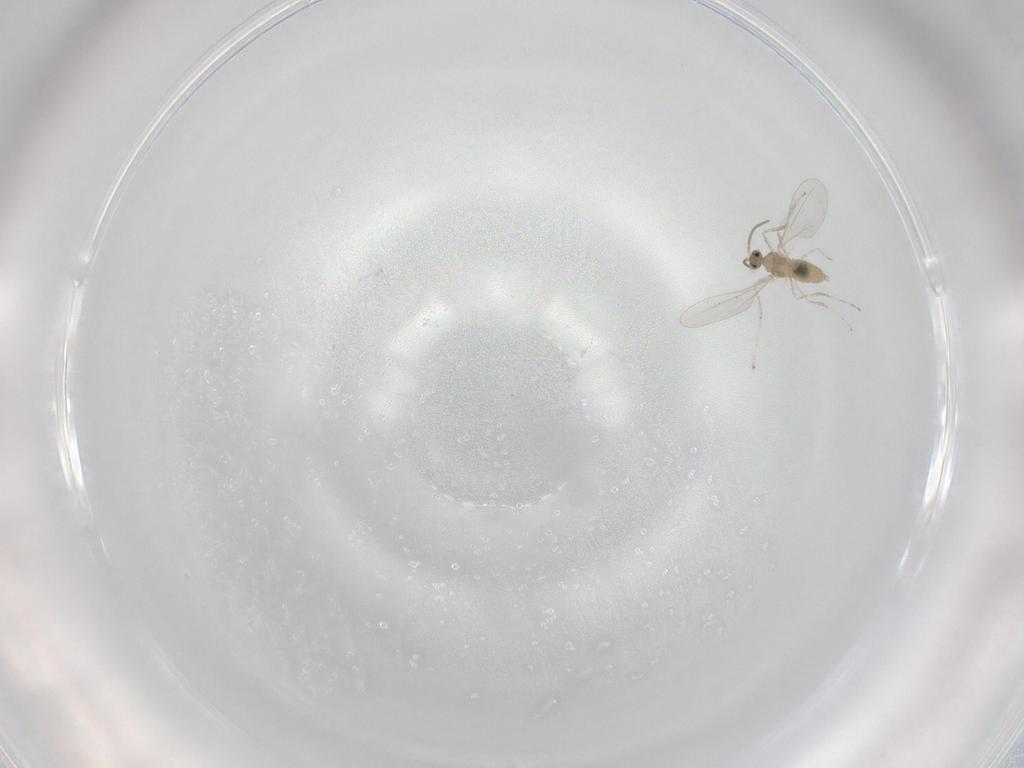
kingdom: Animalia
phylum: Arthropoda
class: Insecta
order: Diptera
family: Cecidomyiidae
